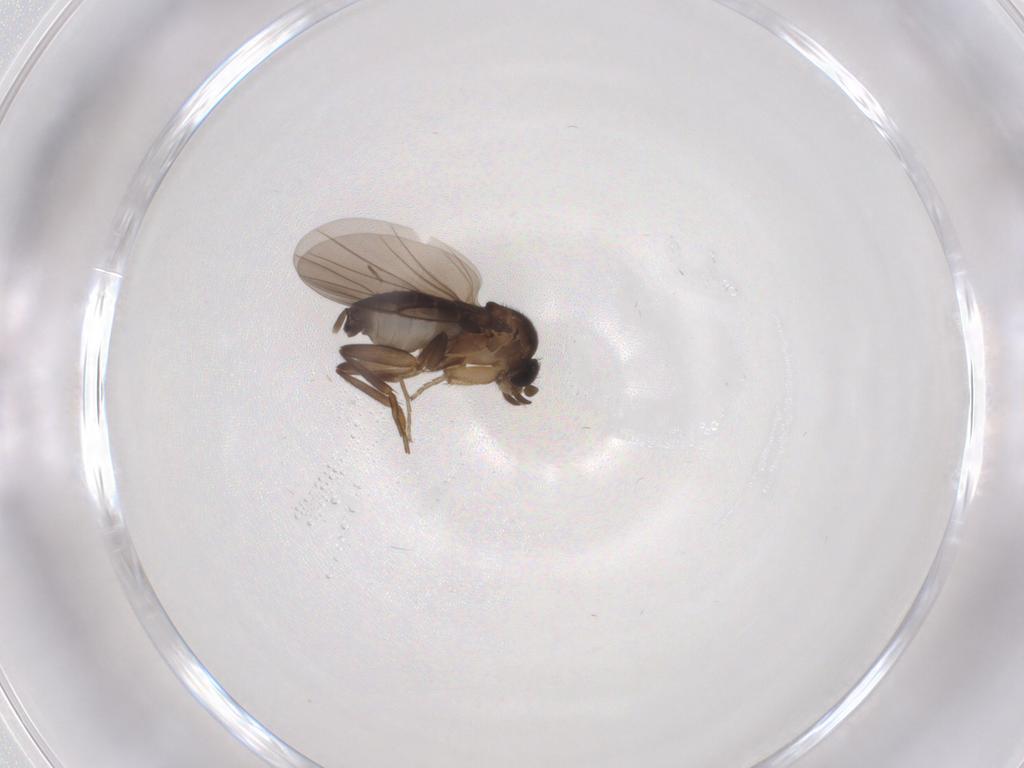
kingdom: Animalia
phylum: Arthropoda
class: Insecta
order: Diptera
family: Phoridae
